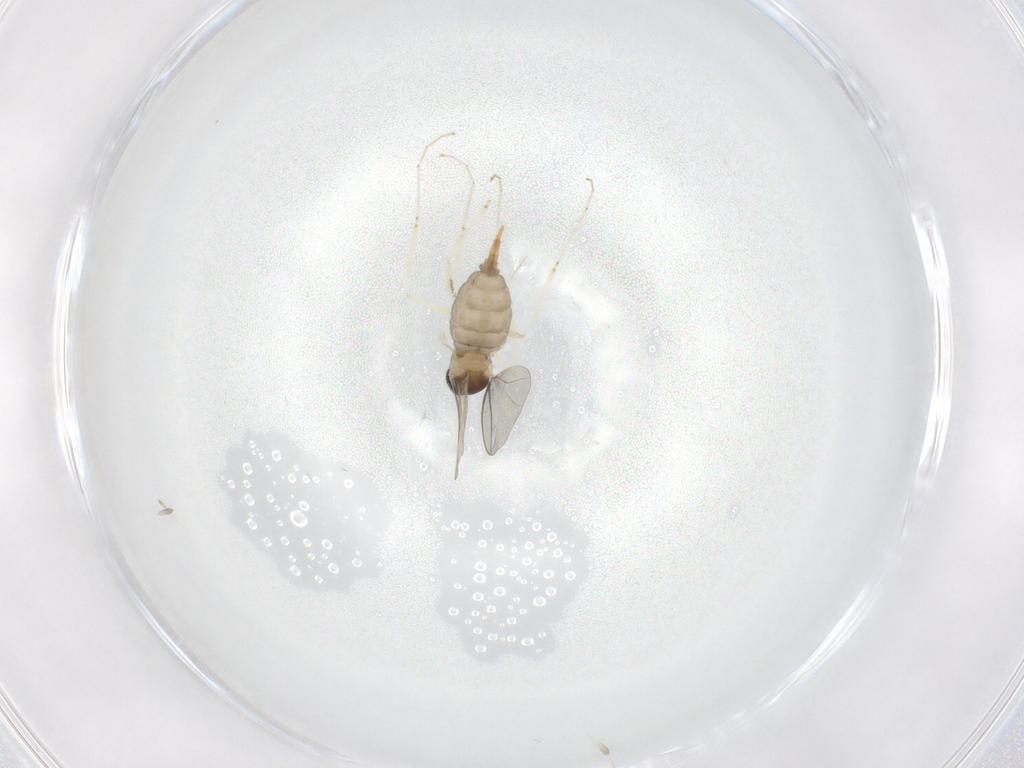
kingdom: Animalia
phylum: Arthropoda
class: Insecta
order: Diptera
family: Cecidomyiidae
